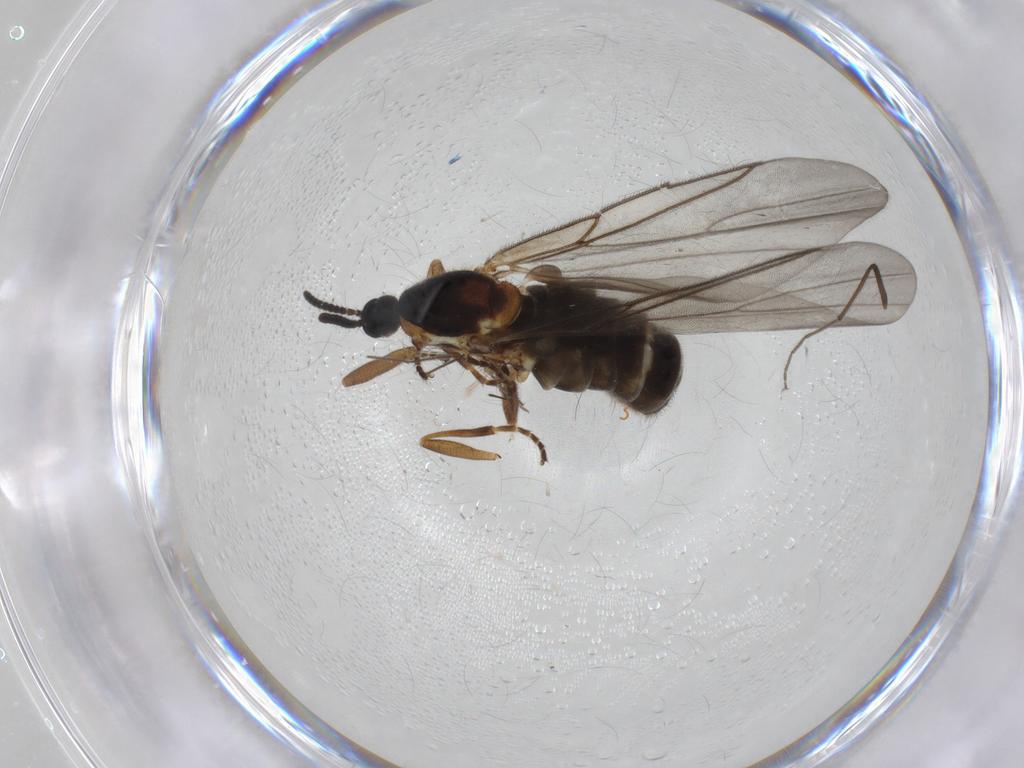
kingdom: Animalia
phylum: Arthropoda
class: Insecta
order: Diptera
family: Scatopsidae
